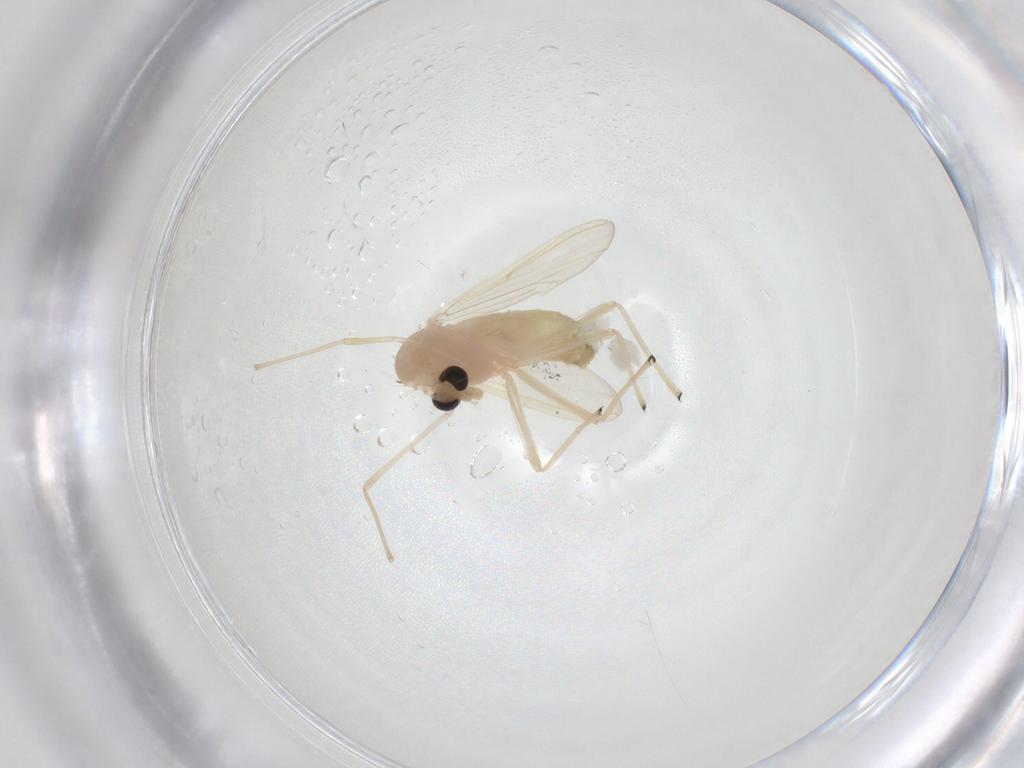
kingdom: Animalia
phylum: Arthropoda
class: Insecta
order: Diptera
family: Chironomidae
